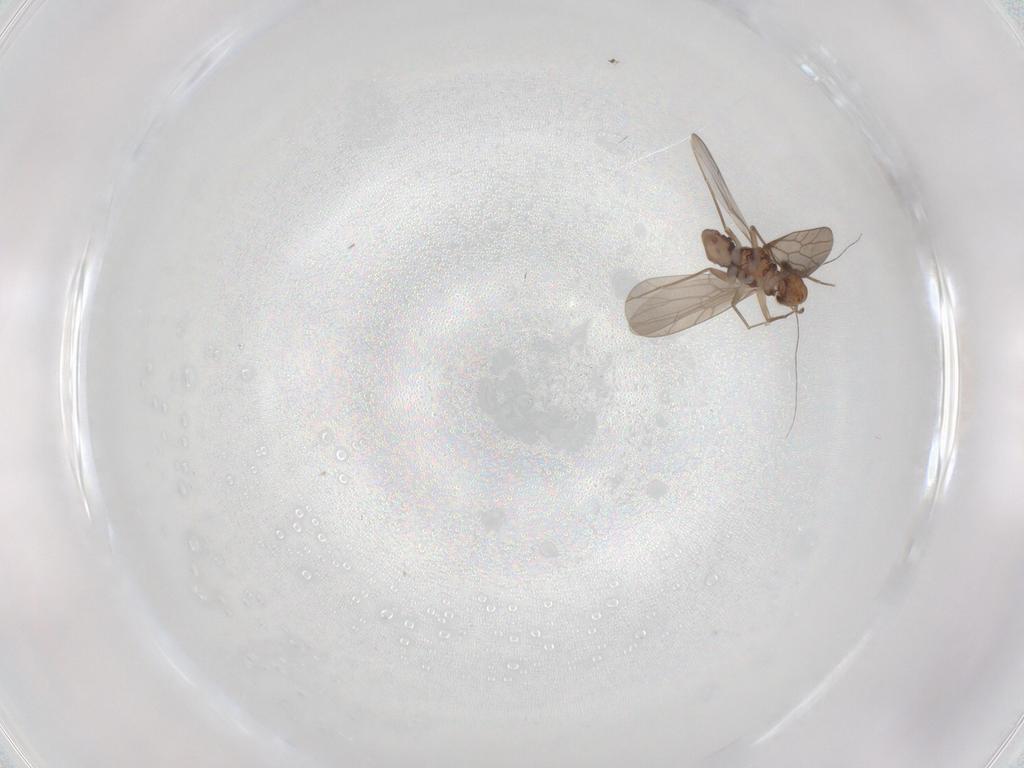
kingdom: Animalia
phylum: Arthropoda
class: Insecta
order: Psocodea
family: Lepidopsocidae
